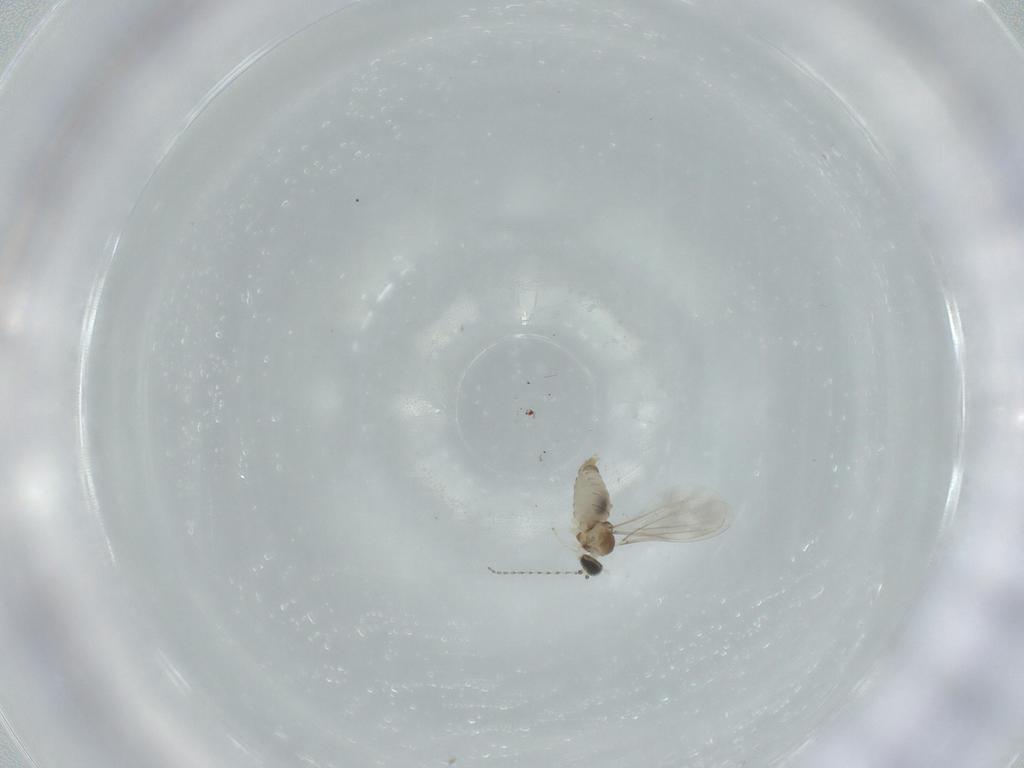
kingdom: Animalia
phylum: Arthropoda
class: Insecta
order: Diptera
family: Cecidomyiidae
